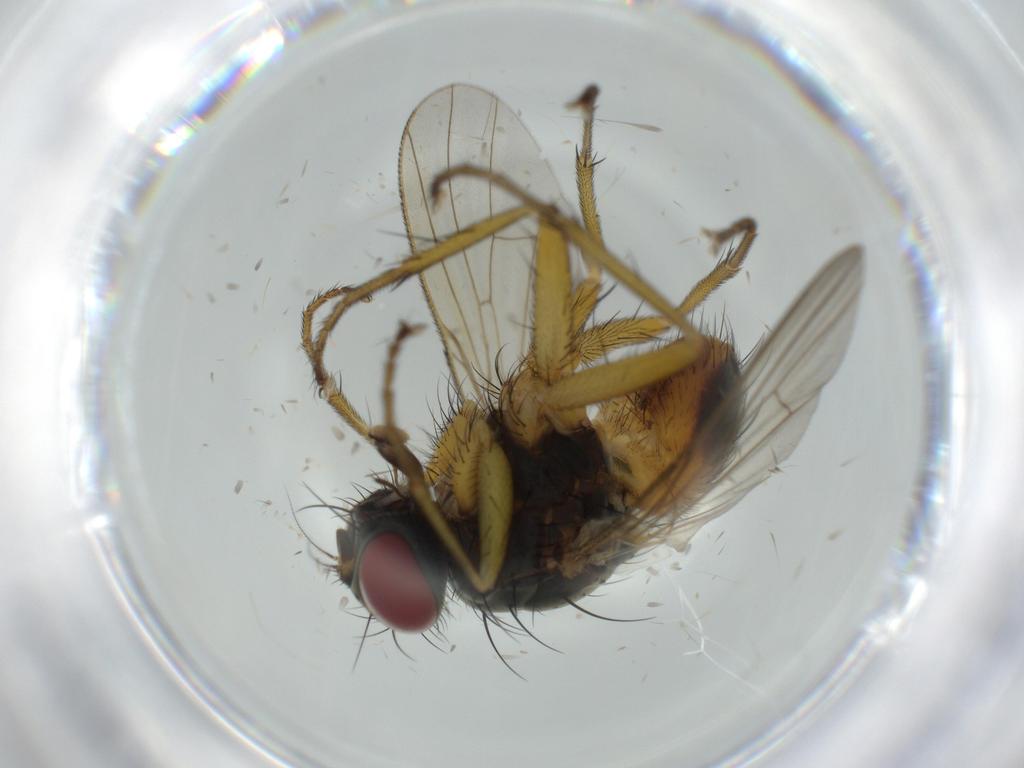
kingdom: Animalia
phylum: Arthropoda
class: Insecta
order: Diptera
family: Muscidae
